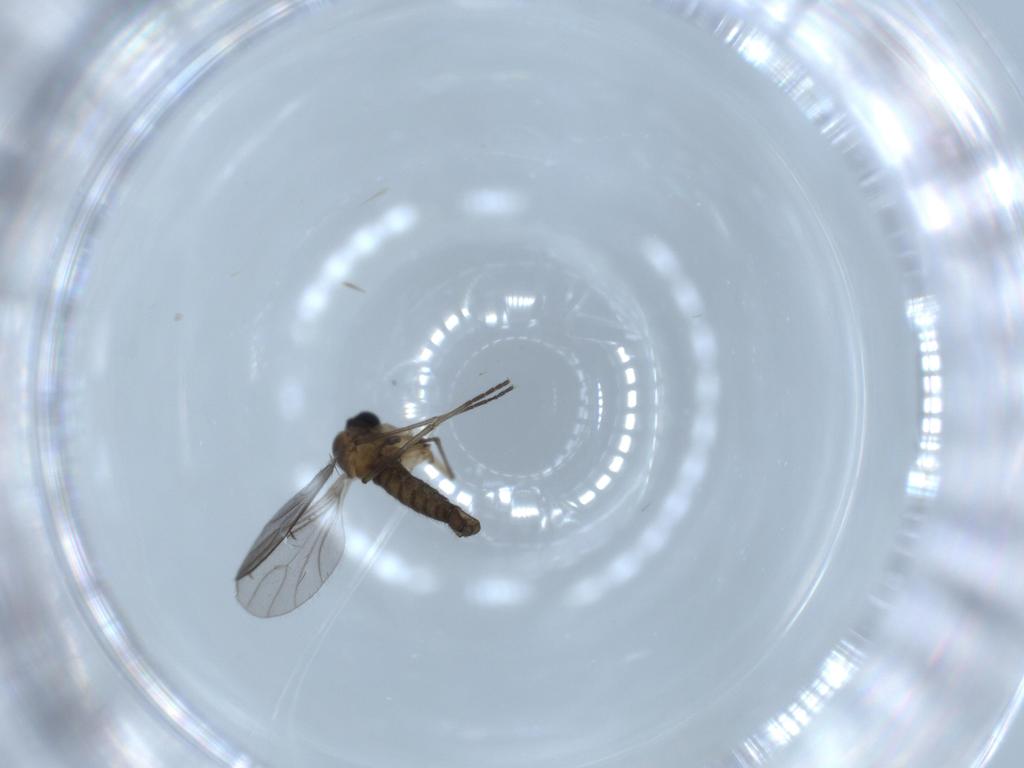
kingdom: Animalia
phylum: Arthropoda
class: Insecta
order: Diptera
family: Sciaridae
